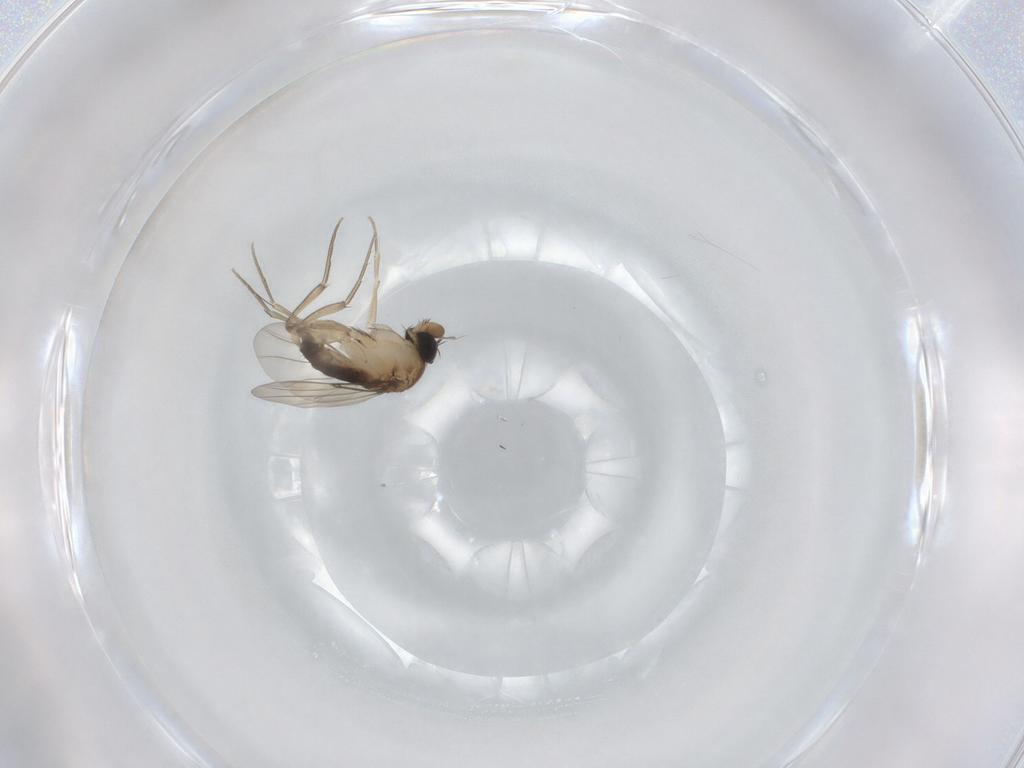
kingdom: Animalia
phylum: Arthropoda
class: Insecta
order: Diptera
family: Phoridae
